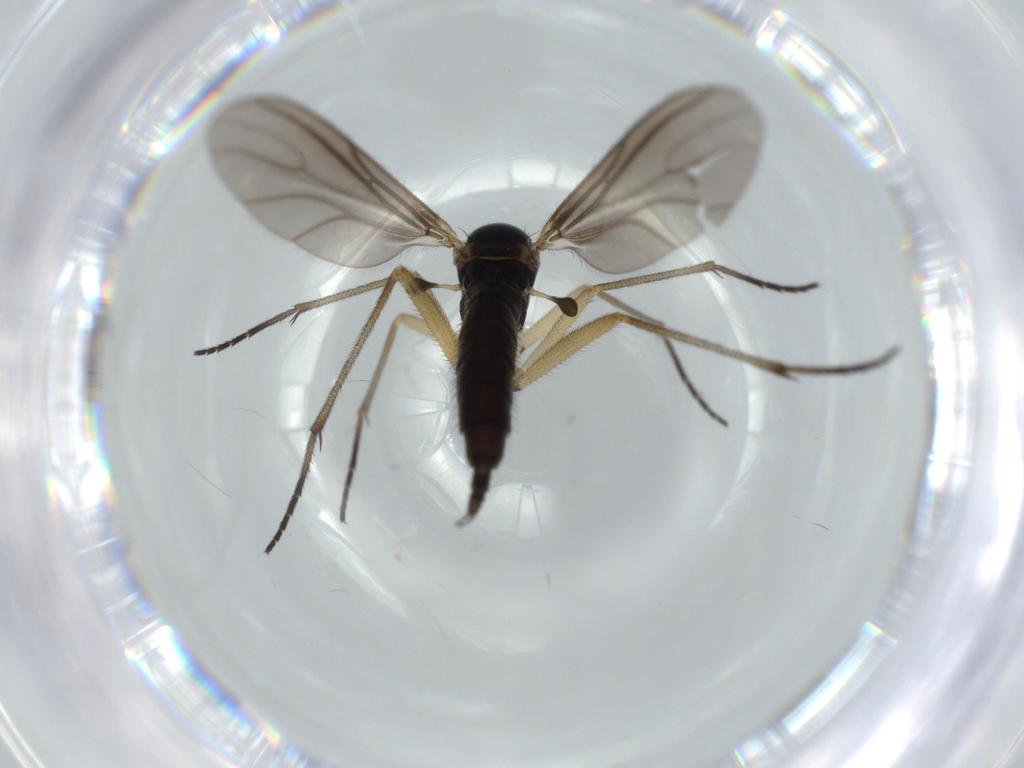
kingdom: Animalia
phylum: Arthropoda
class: Insecta
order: Diptera
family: Sciaridae
